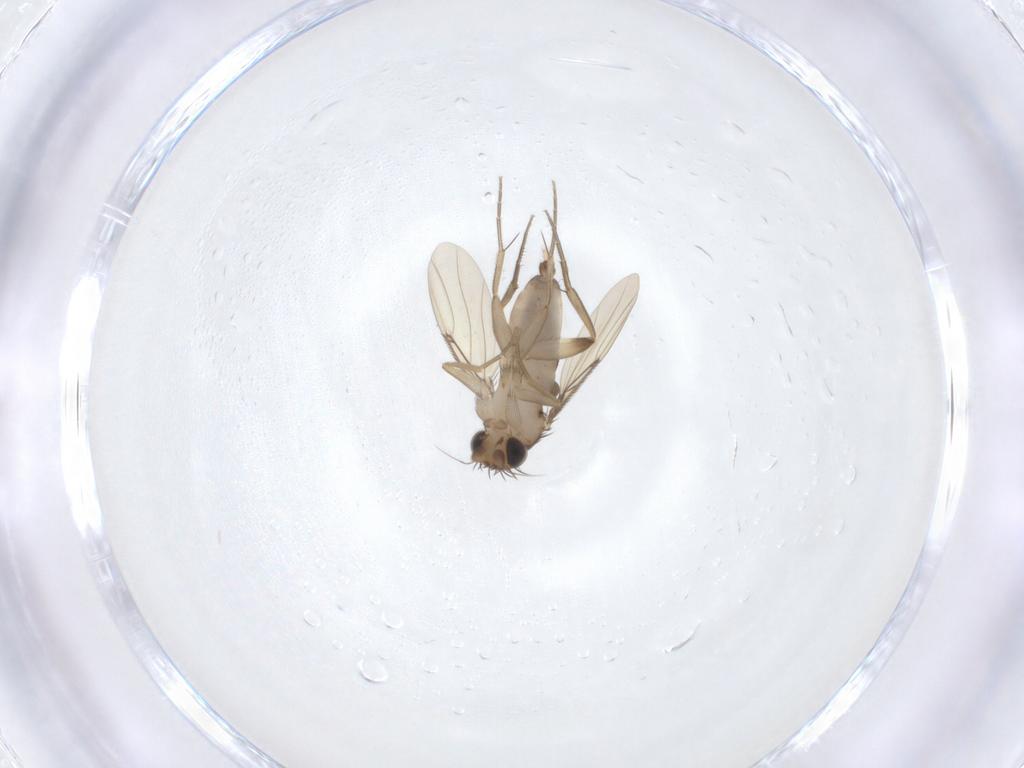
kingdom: Animalia
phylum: Arthropoda
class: Insecta
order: Diptera
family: Phoridae
